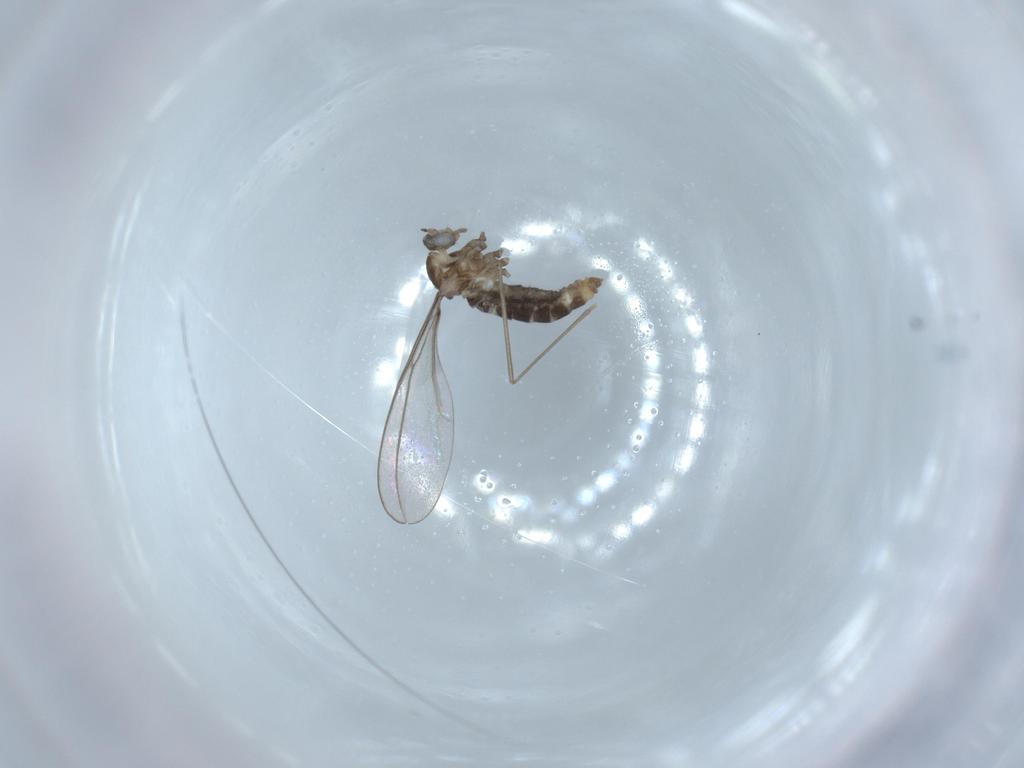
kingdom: Animalia
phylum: Arthropoda
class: Insecta
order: Diptera
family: Cecidomyiidae
